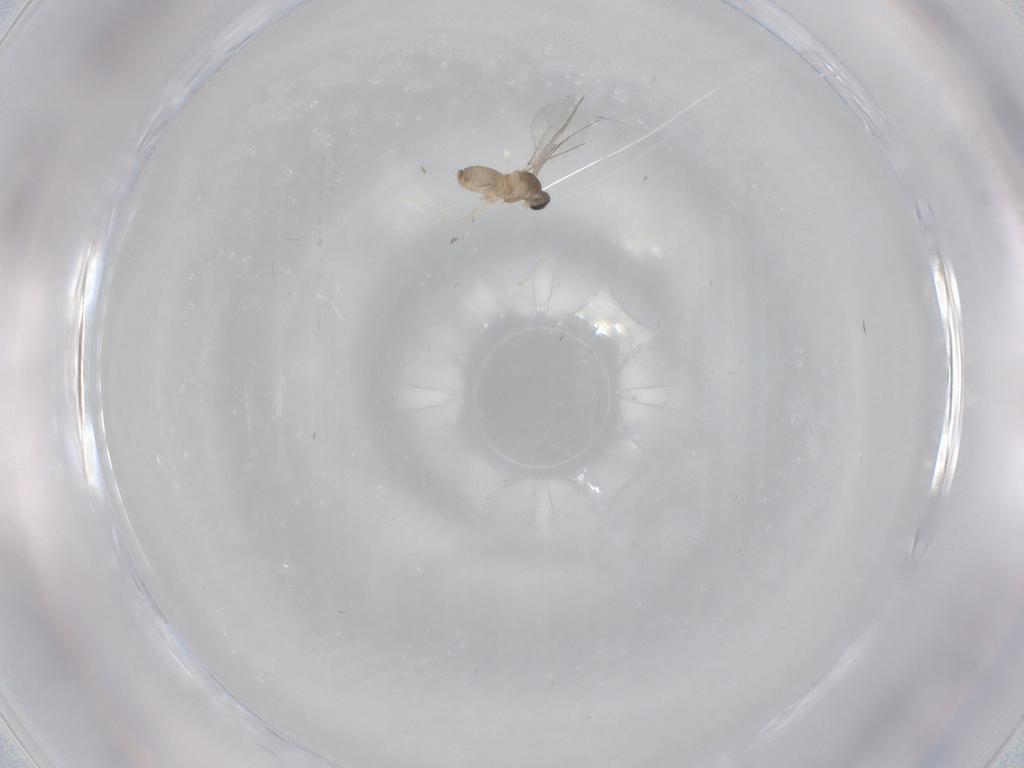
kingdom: Animalia
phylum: Arthropoda
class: Insecta
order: Diptera
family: Cecidomyiidae
